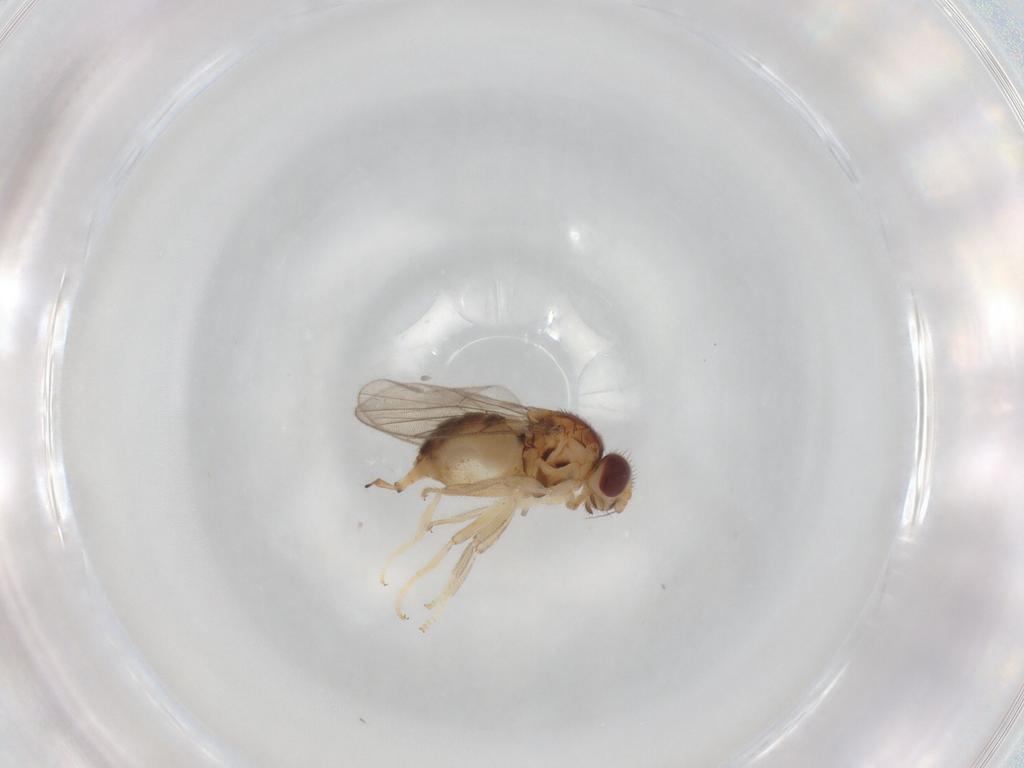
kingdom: Animalia
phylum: Arthropoda
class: Insecta
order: Diptera
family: Chloropidae
